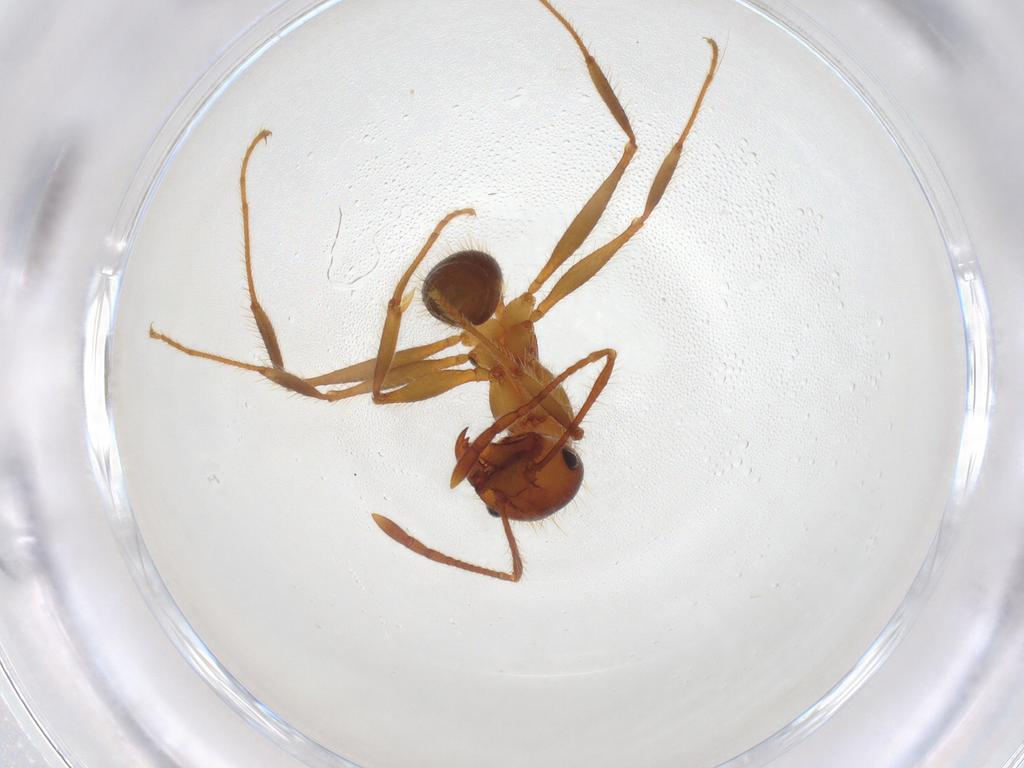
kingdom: Animalia
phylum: Arthropoda
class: Insecta
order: Hymenoptera
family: Formicidae
